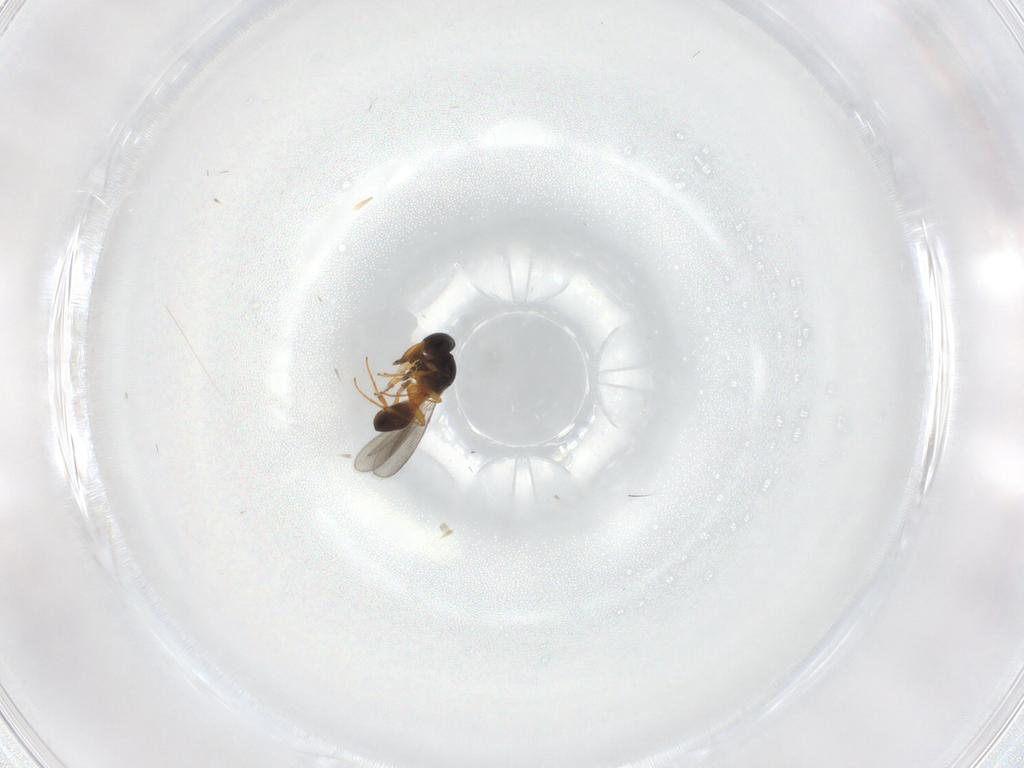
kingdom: Animalia
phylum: Arthropoda
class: Insecta
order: Hymenoptera
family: Platygastridae
